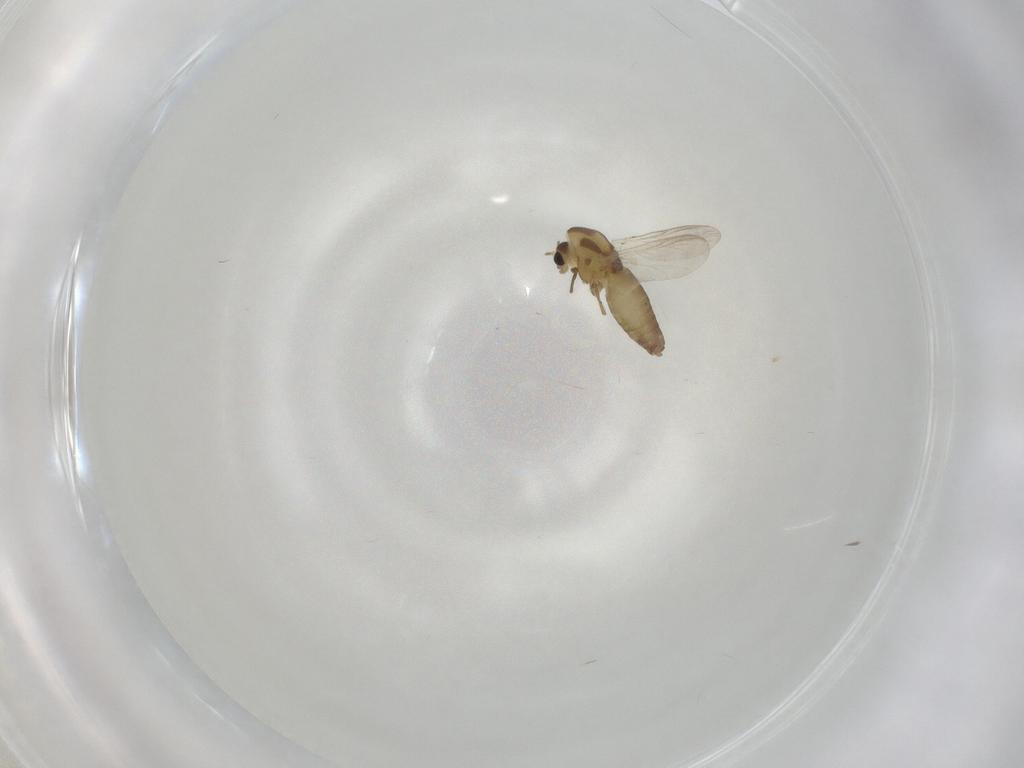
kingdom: Animalia
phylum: Arthropoda
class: Insecta
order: Diptera
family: Chironomidae
